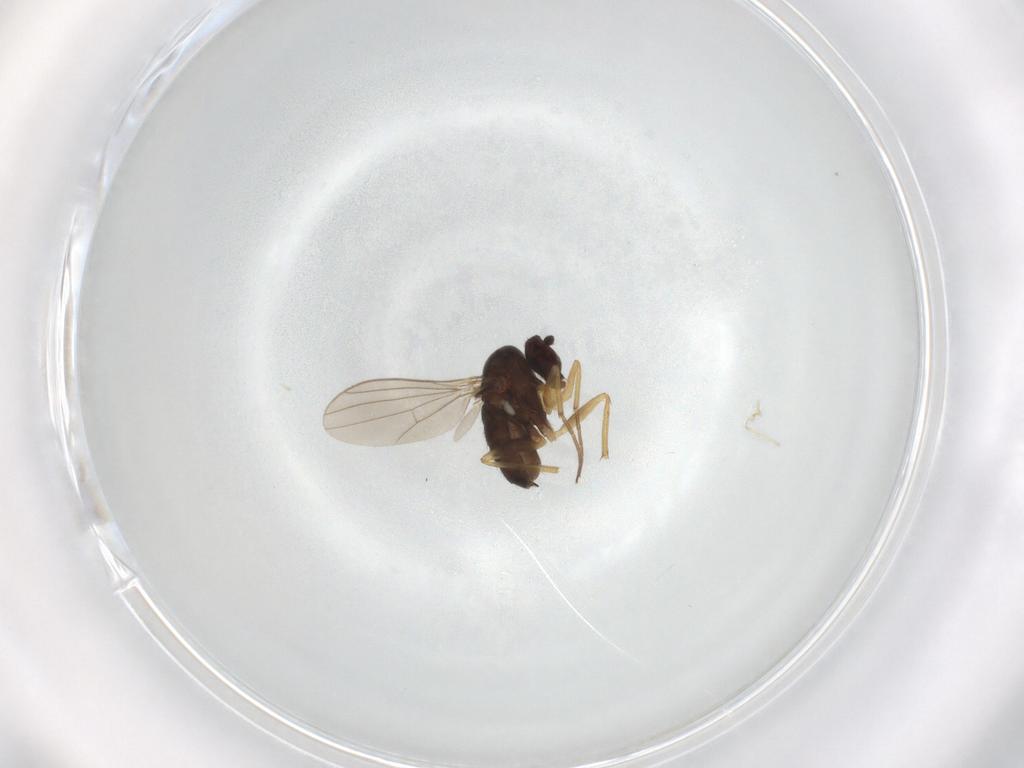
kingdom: Animalia
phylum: Arthropoda
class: Insecta
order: Diptera
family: Dolichopodidae
